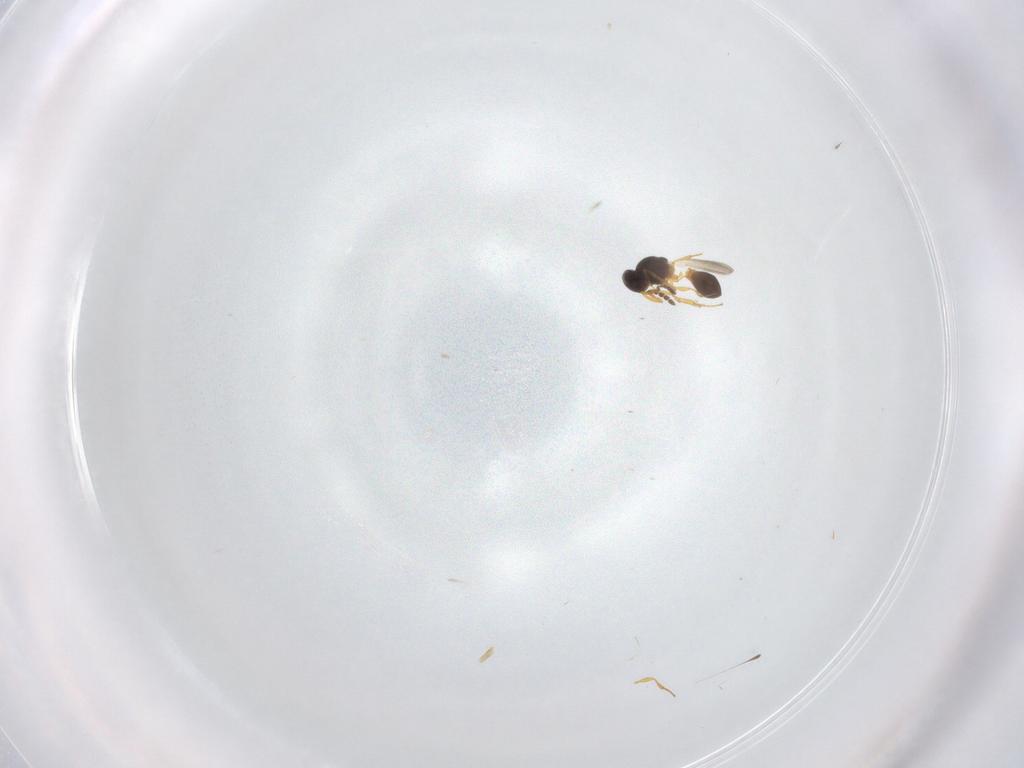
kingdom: Animalia
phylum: Arthropoda
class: Insecta
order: Hymenoptera
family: Platygastridae
